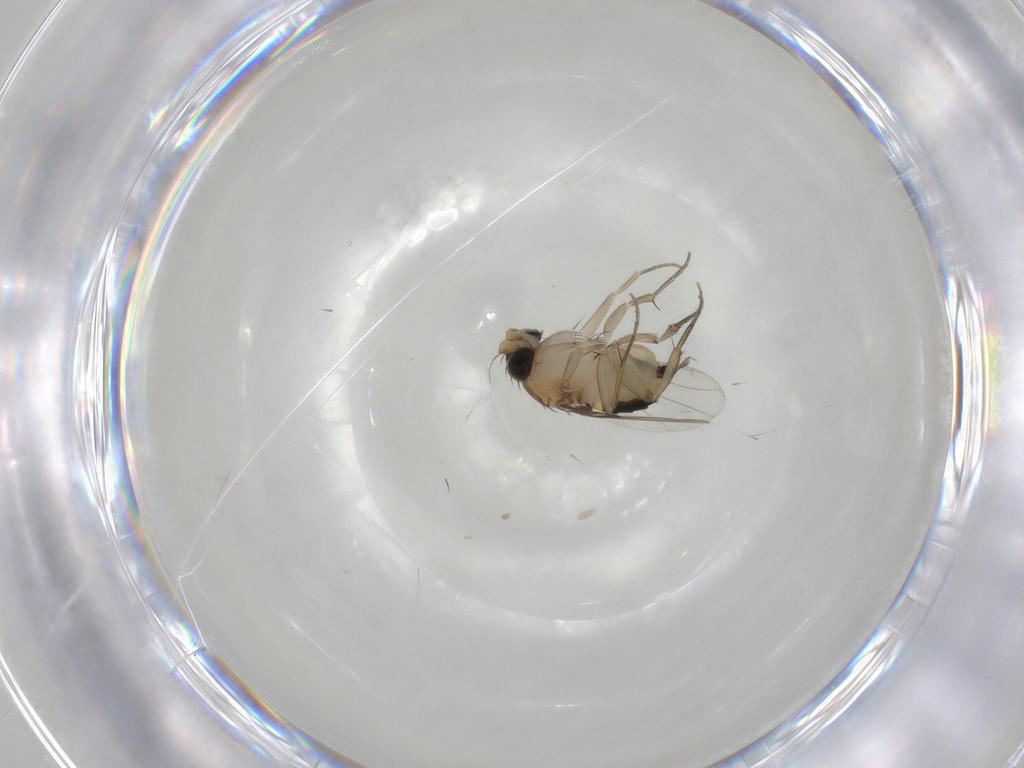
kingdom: Animalia
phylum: Arthropoda
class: Insecta
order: Diptera
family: Phoridae
